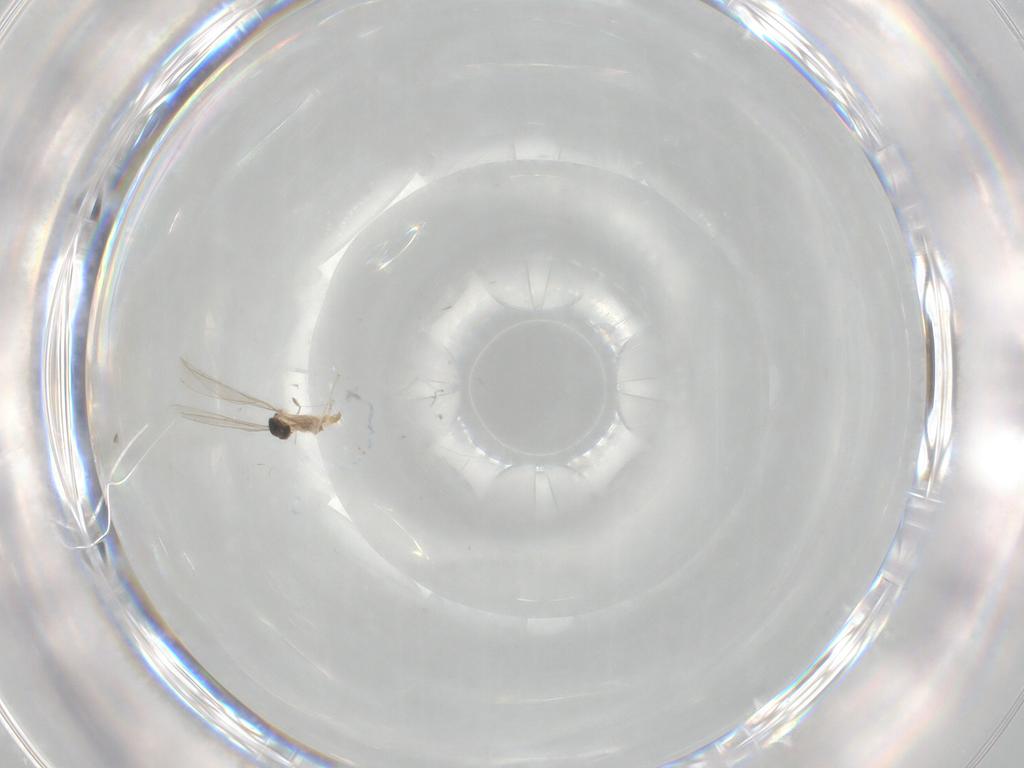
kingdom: Animalia
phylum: Arthropoda
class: Insecta
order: Diptera
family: Cecidomyiidae
